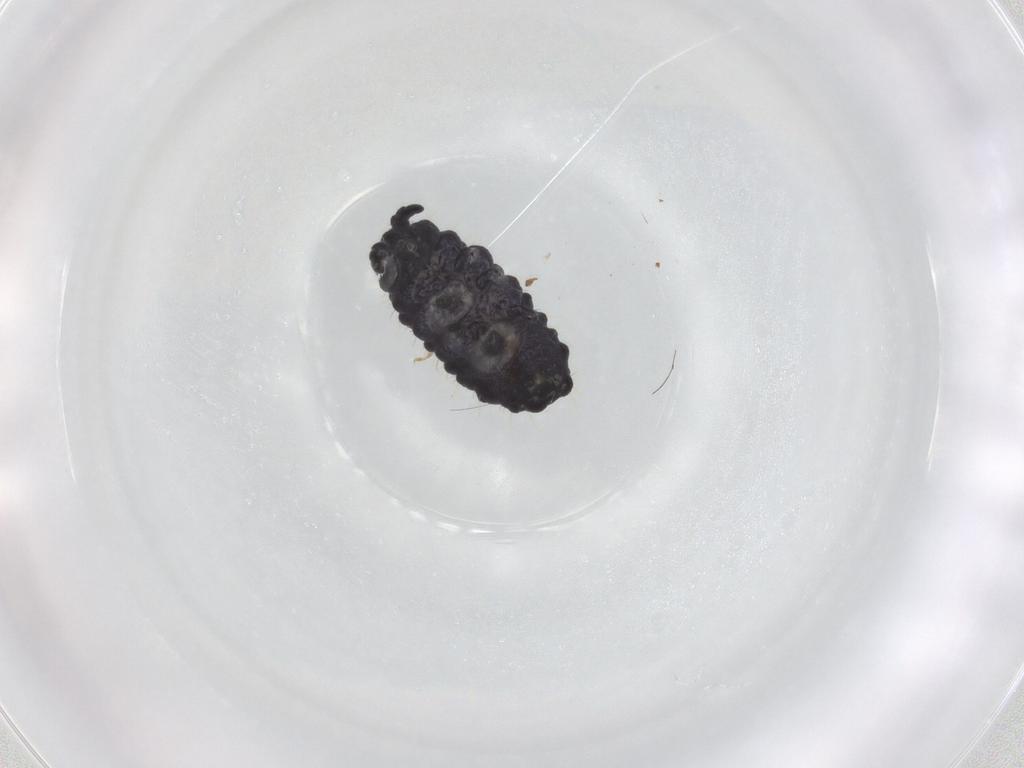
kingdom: Animalia
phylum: Arthropoda
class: Collembola
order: Poduromorpha
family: Neanuridae
